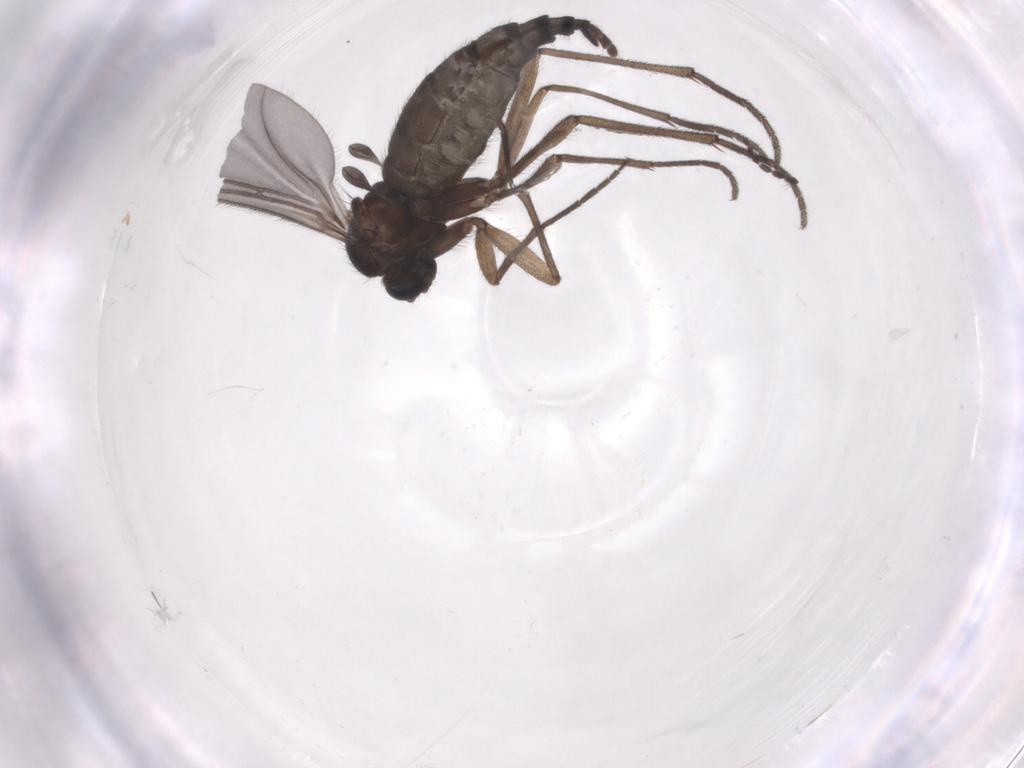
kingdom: Animalia
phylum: Arthropoda
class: Insecta
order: Diptera
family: Limoniidae
